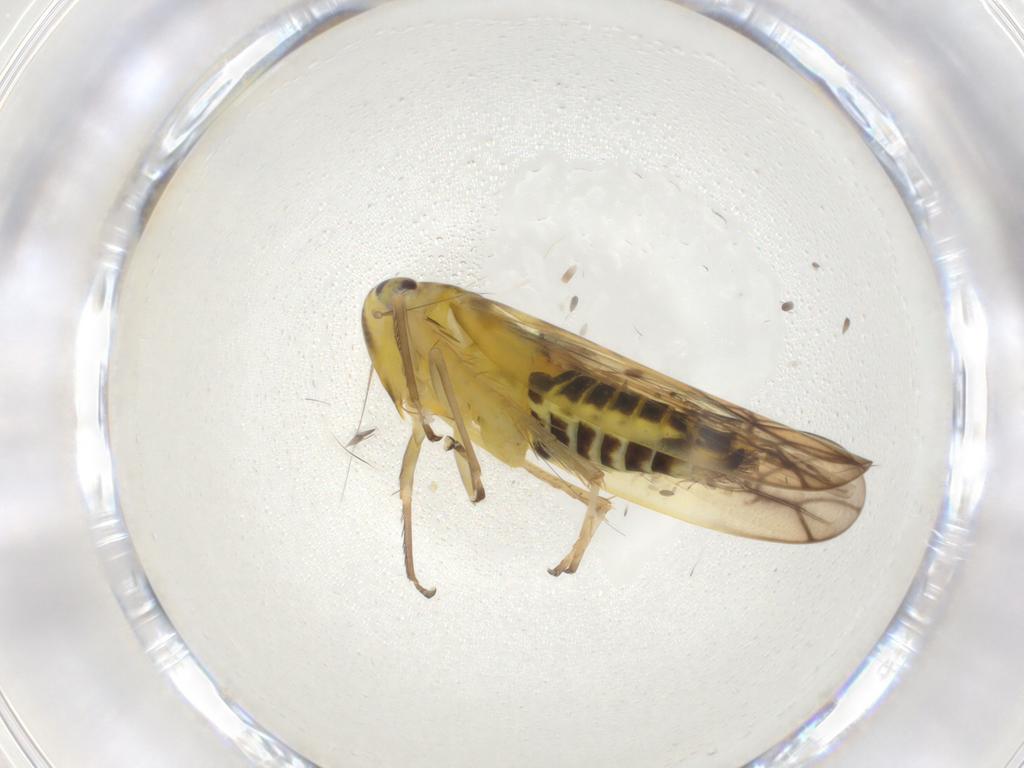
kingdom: Animalia
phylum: Arthropoda
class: Insecta
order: Hemiptera
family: Cicadellidae
